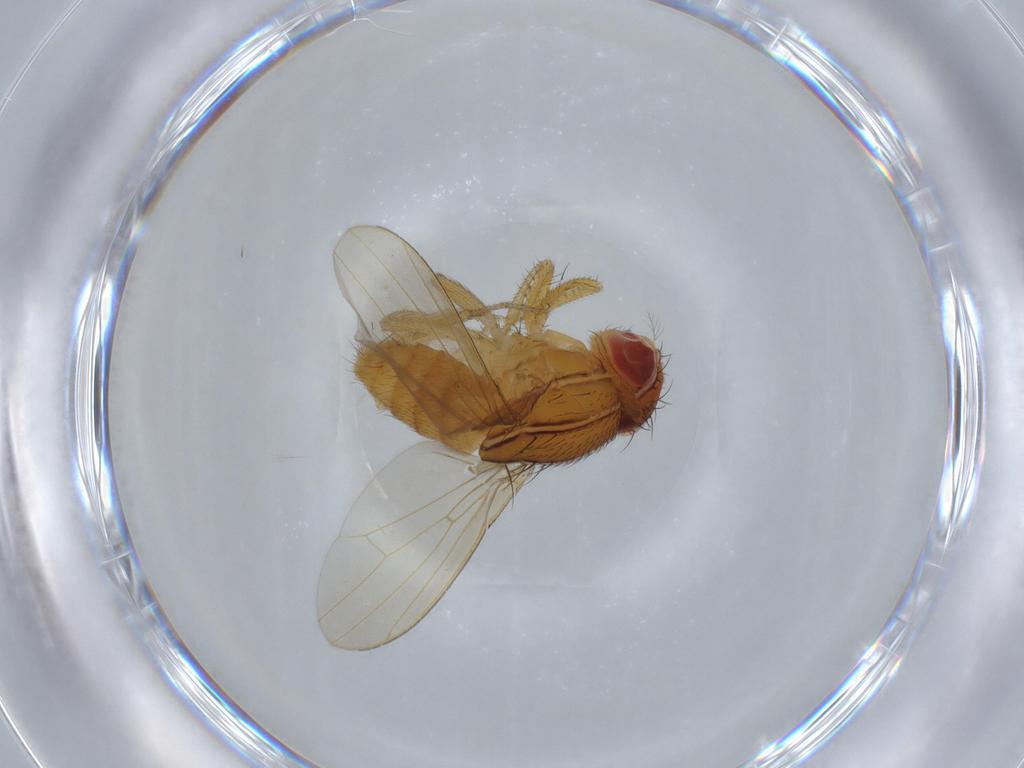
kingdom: Animalia
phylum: Arthropoda
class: Insecta
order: Diptera
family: Drosophilidae
